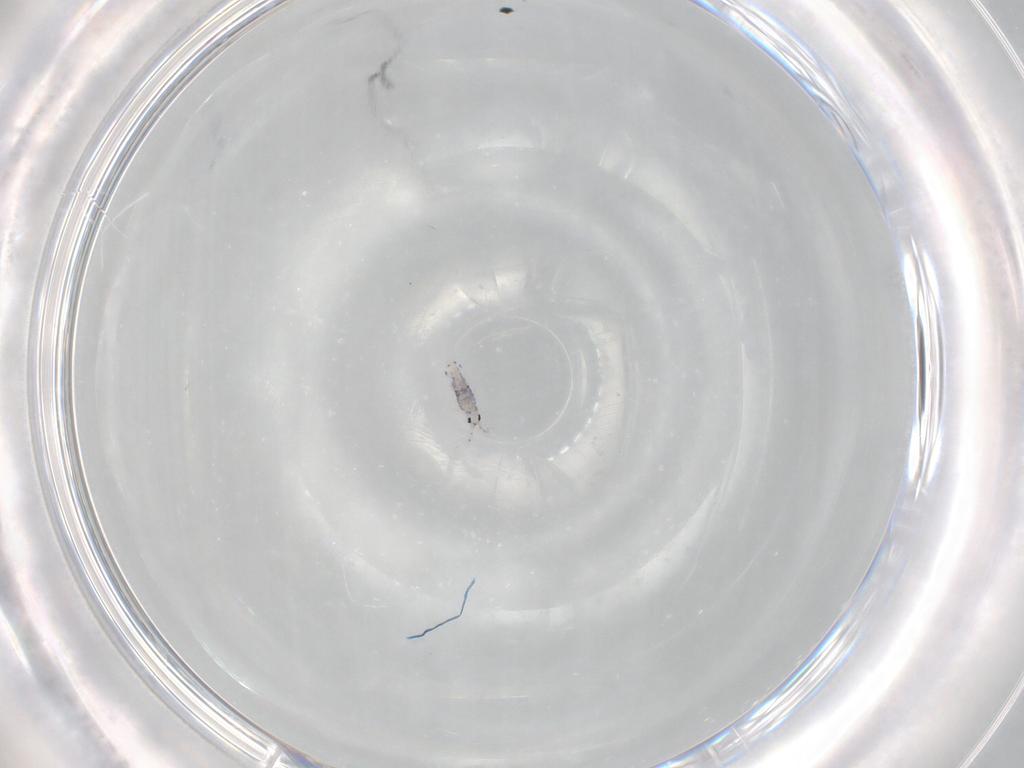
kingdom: Animalia
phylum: Arthropoda
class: Collembola
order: Entomobryomorpha
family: Entomobryidae
